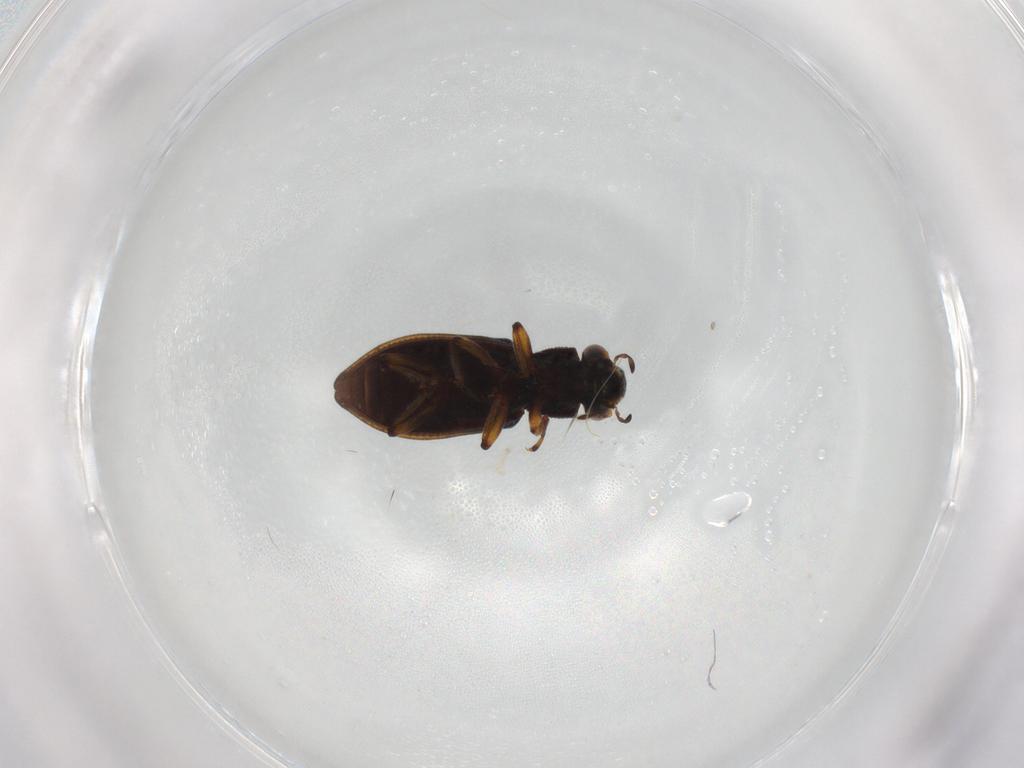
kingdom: Animalia
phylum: Arthropoda
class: Insecta
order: Coleoptera
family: Hydrophilidae
